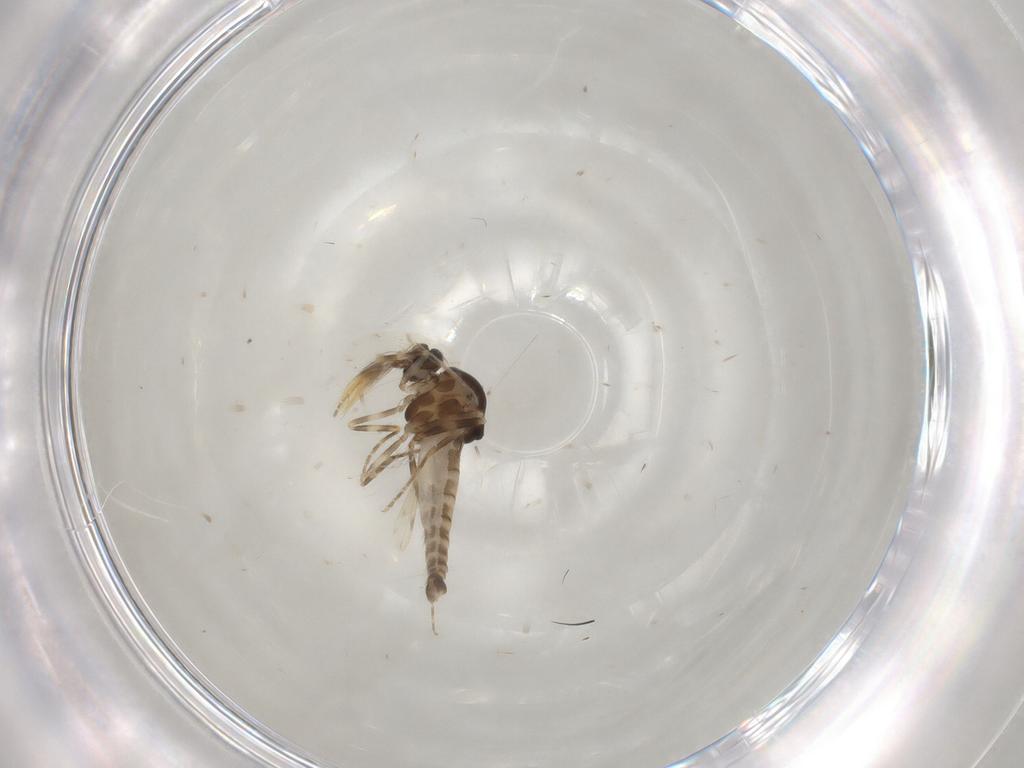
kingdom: Animalia
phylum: Arthropoda
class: Insecta
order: Diptera
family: Ceratopogonidae
